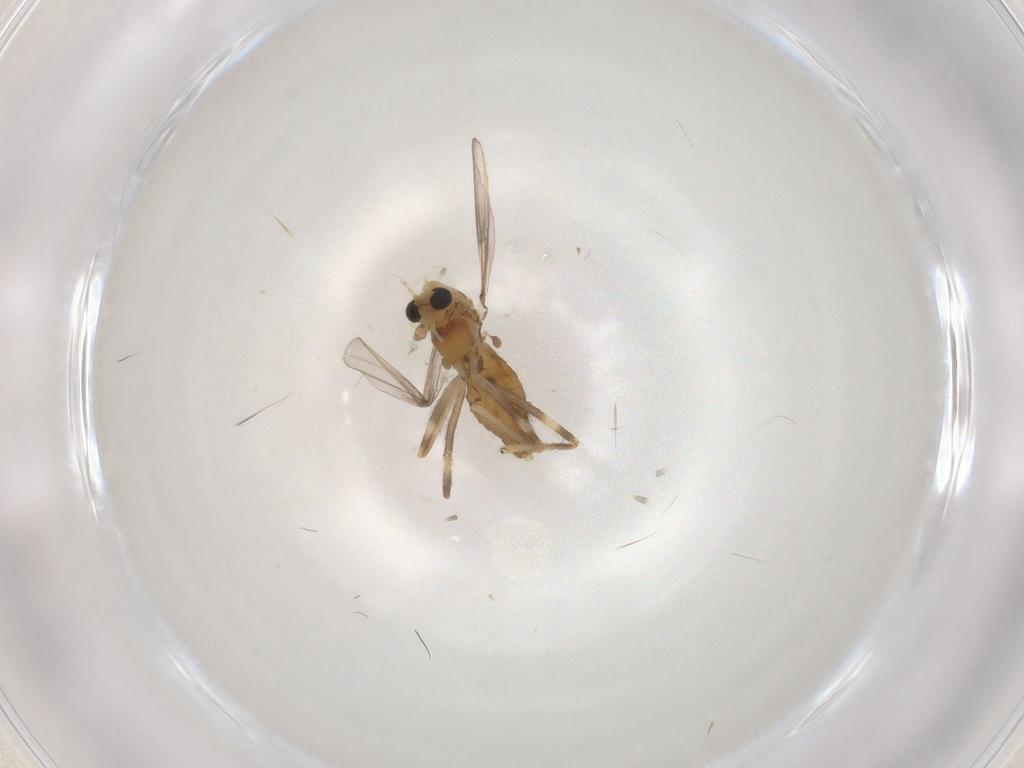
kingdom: Animalia
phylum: Arthropoda
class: Insecta
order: Diptera
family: Chironomidae
